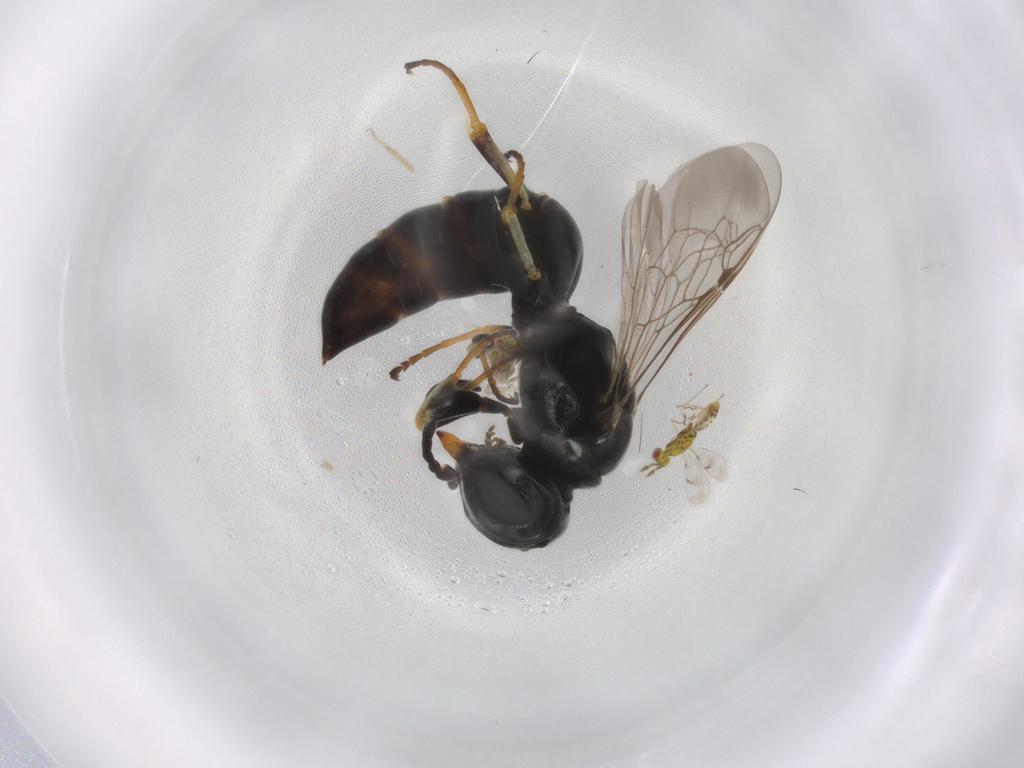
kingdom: Animalia
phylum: Arthropoda
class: Insecta
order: Hymenoptera
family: Crabronidae
